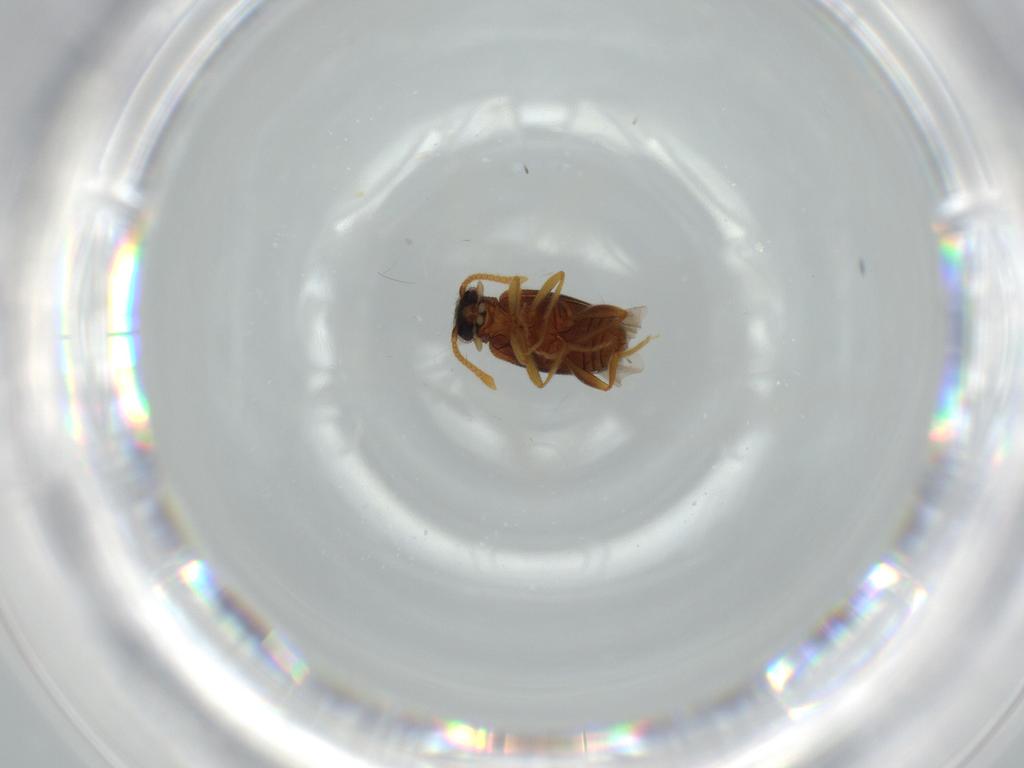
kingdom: Animalia
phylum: Arthropoda
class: Insecta
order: Coleoptera
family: Aderidae
